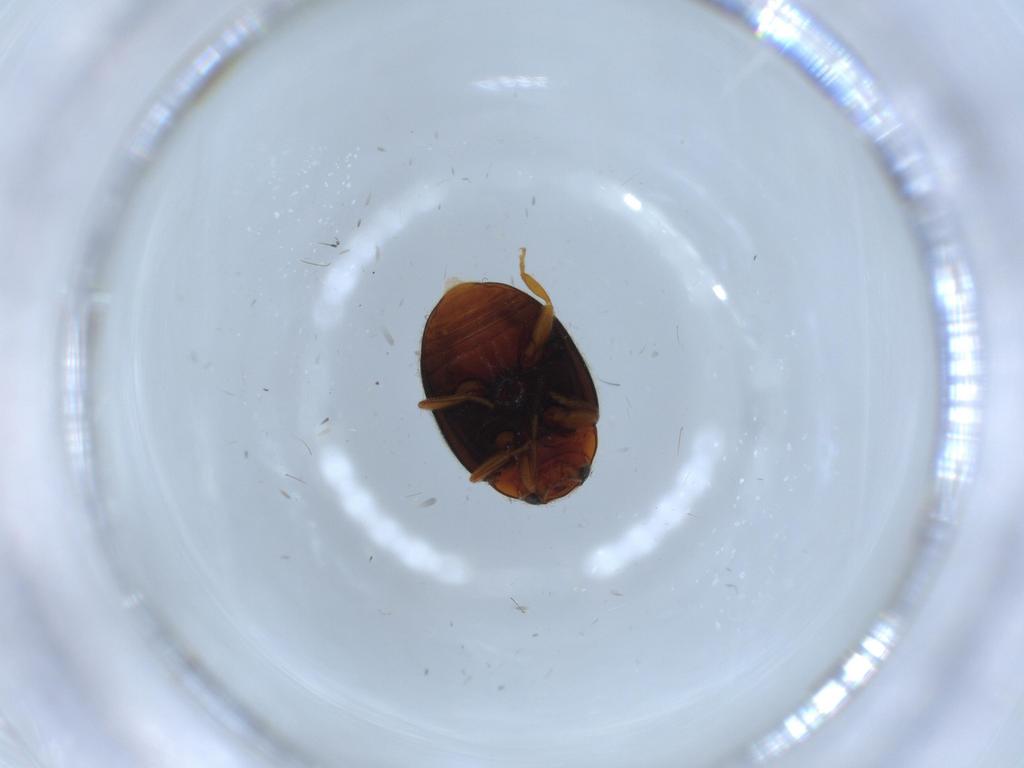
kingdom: Animalia
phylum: Arthropoda
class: Insecta
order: Coleoptera
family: Coccinellidae
